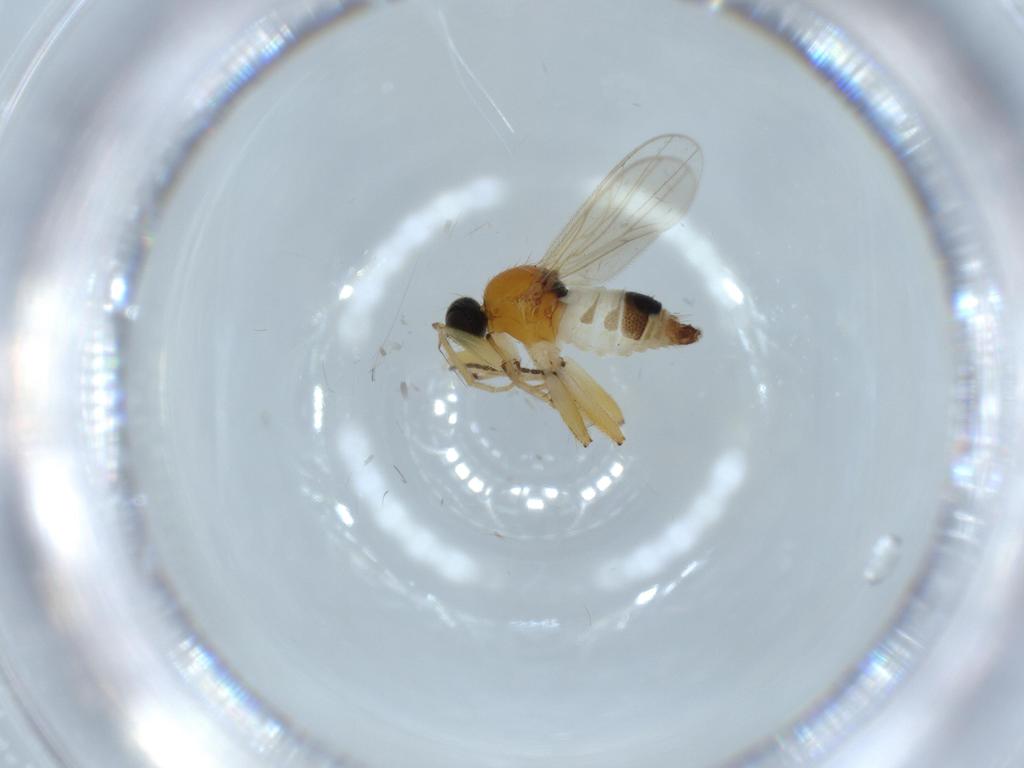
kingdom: Animalia
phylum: Arthropoda
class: Insecta
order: Diptera
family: Hybotidae
